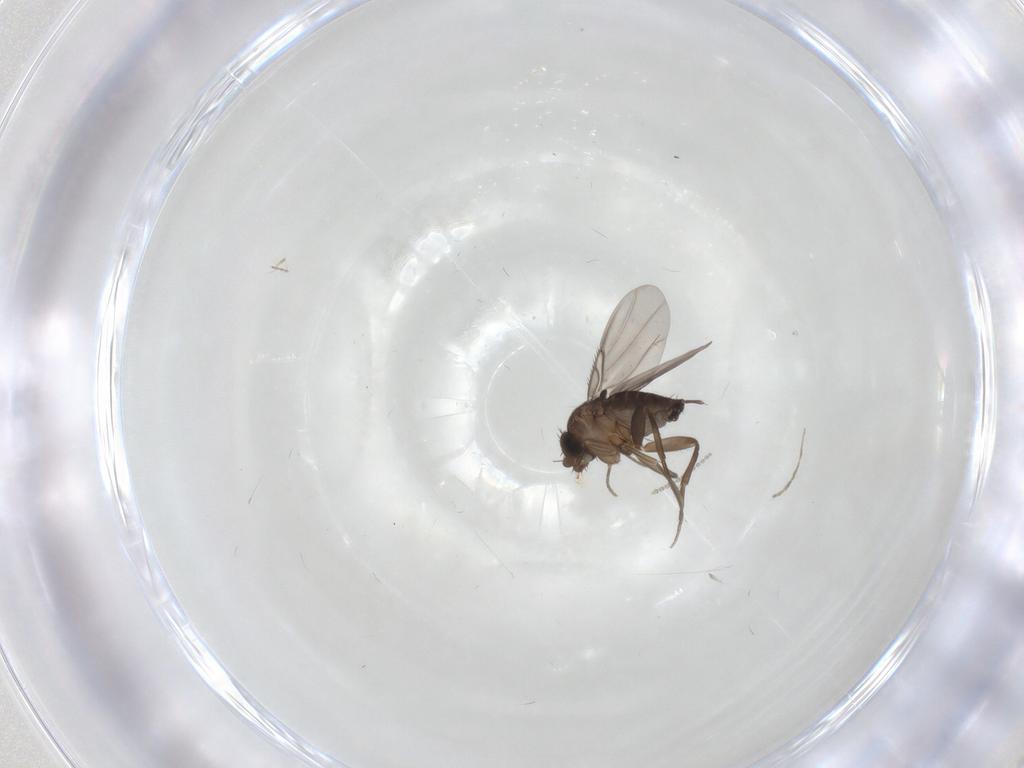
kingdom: Animalia
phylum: Arthropoda
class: Insecta
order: Diptera
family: Phoridae
